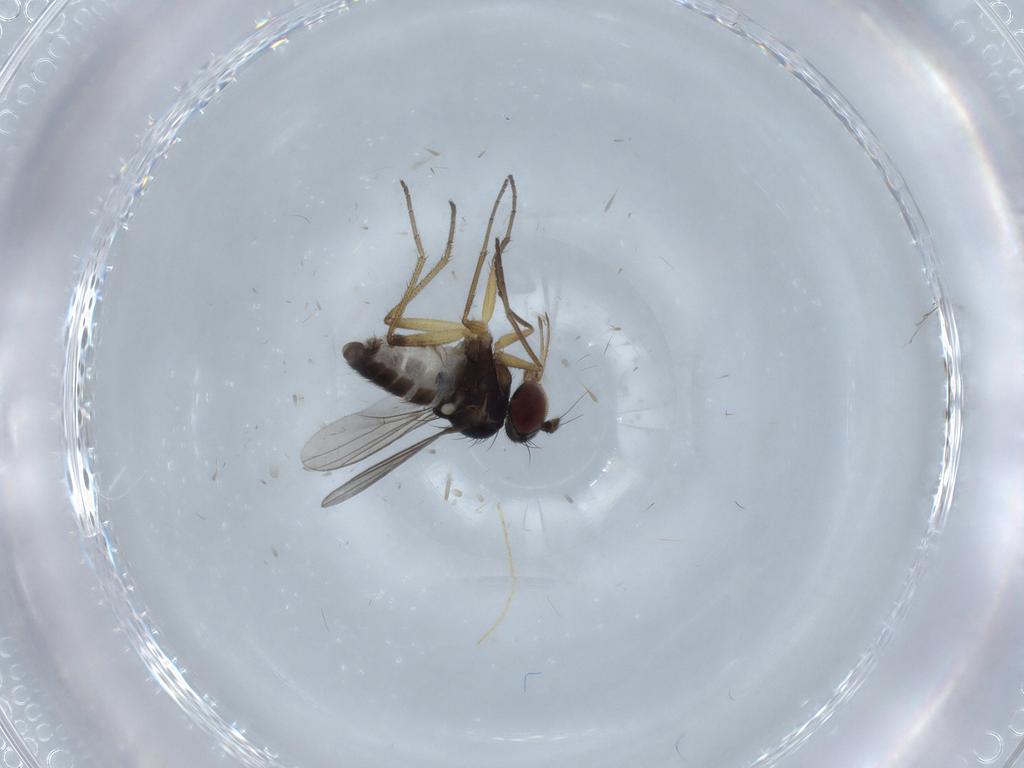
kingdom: Animalia
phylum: Arthropoda
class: Insecta
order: Diptera
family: Dolichopodidae
